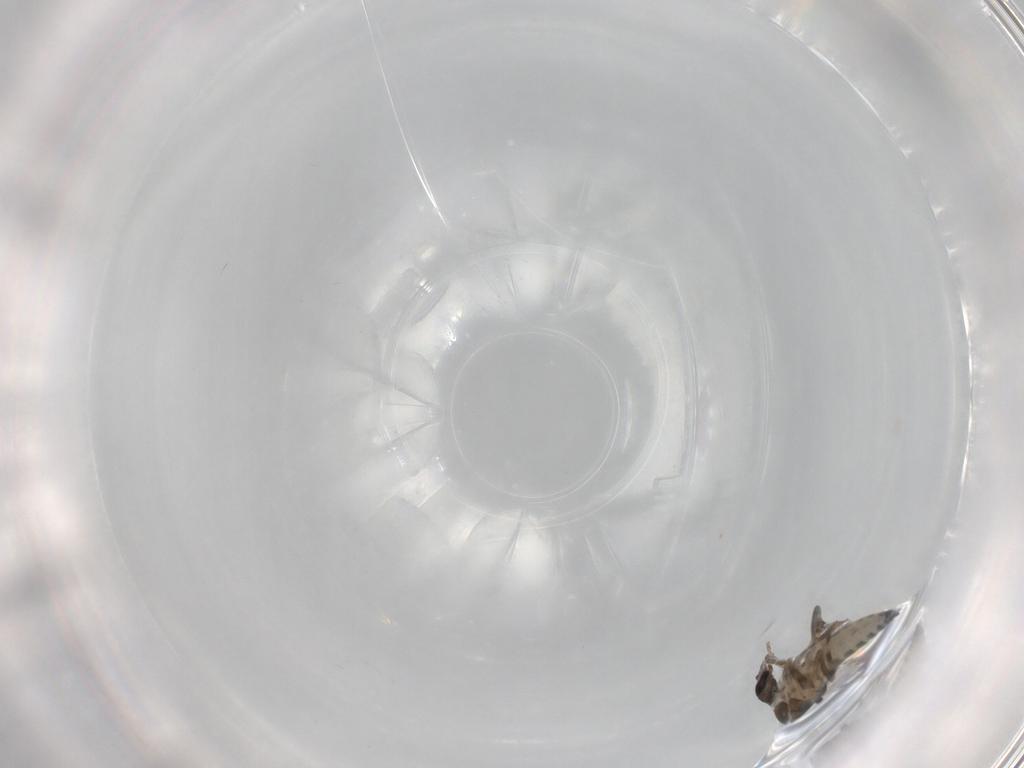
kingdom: Animalia
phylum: Arthropoda
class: Insecta
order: Diptera
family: Ceratopogonidae
